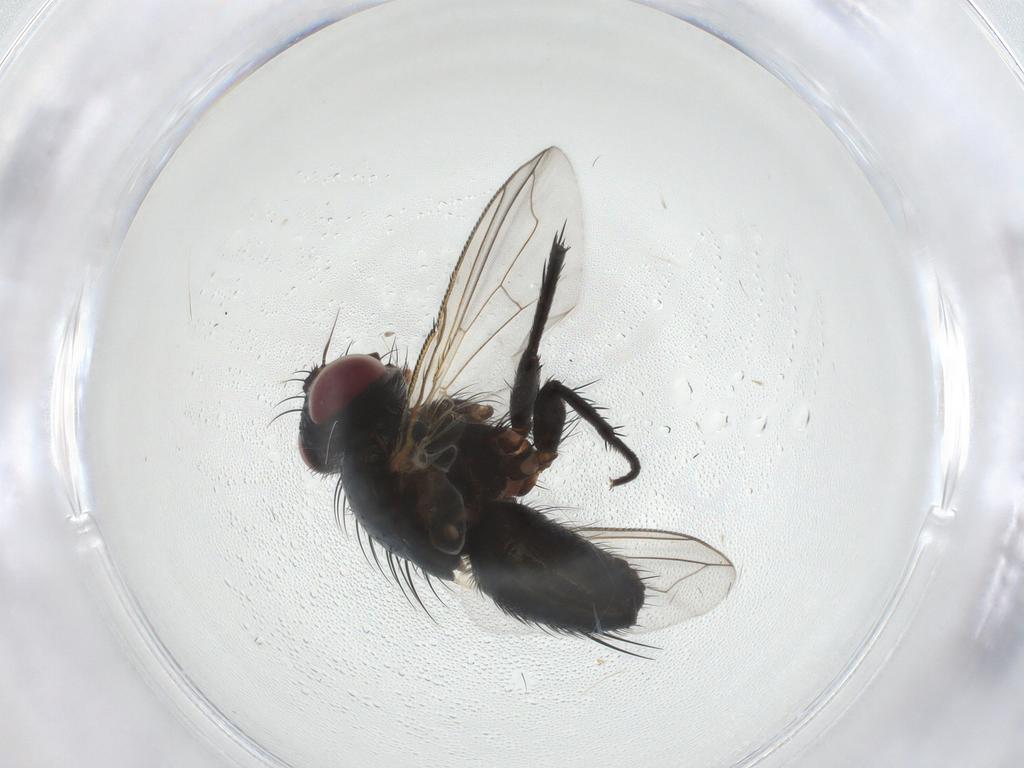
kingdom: Animalia
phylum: Arthropoda
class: Insecta
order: Diptera
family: Tachinidae
